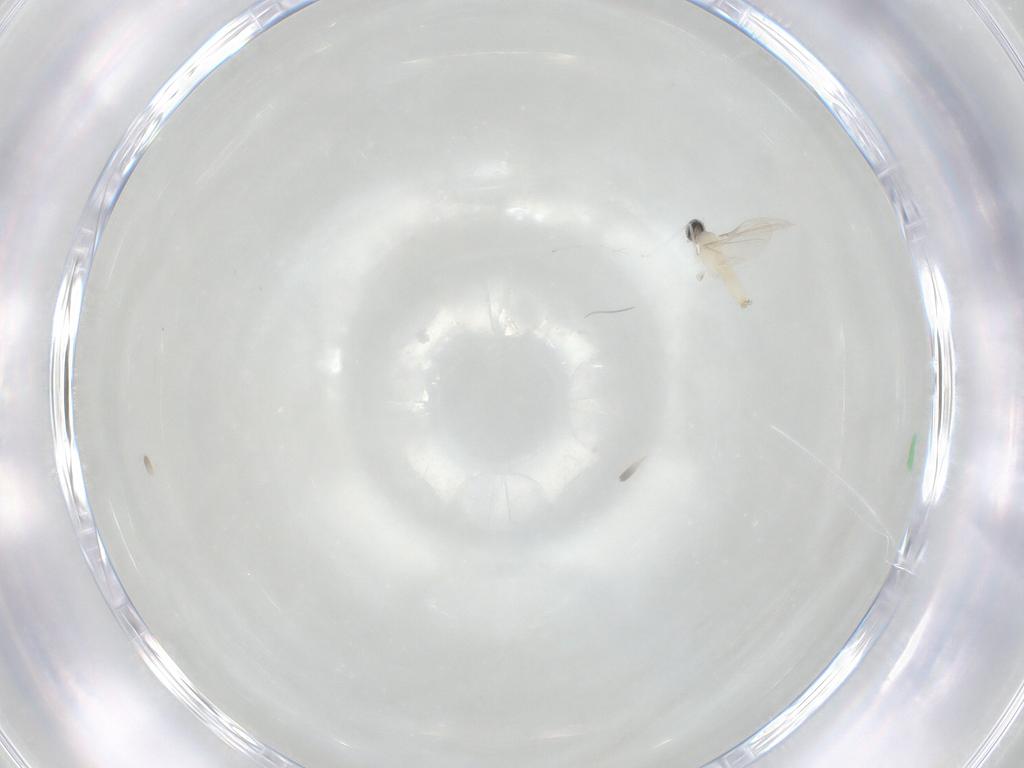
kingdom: Animalia
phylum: Arthropoda
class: Insecta
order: Diptera
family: Cecidomyiidae
